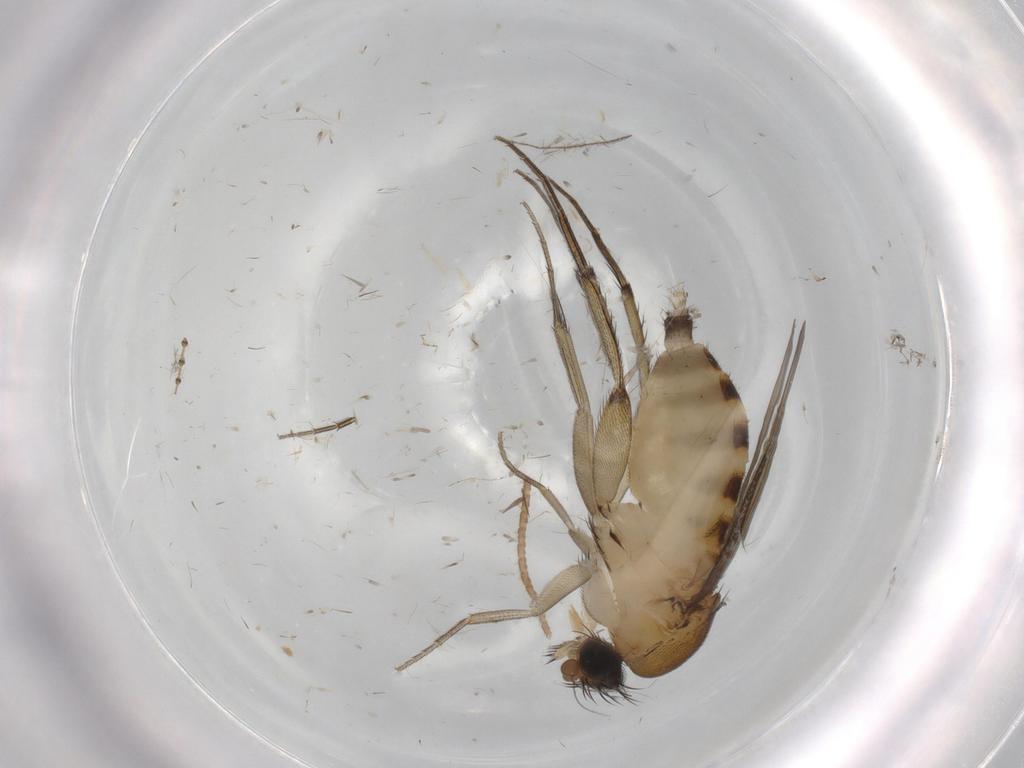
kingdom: Animalia
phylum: Arthropoda
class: Insecta
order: Diptera
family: Phoridae
